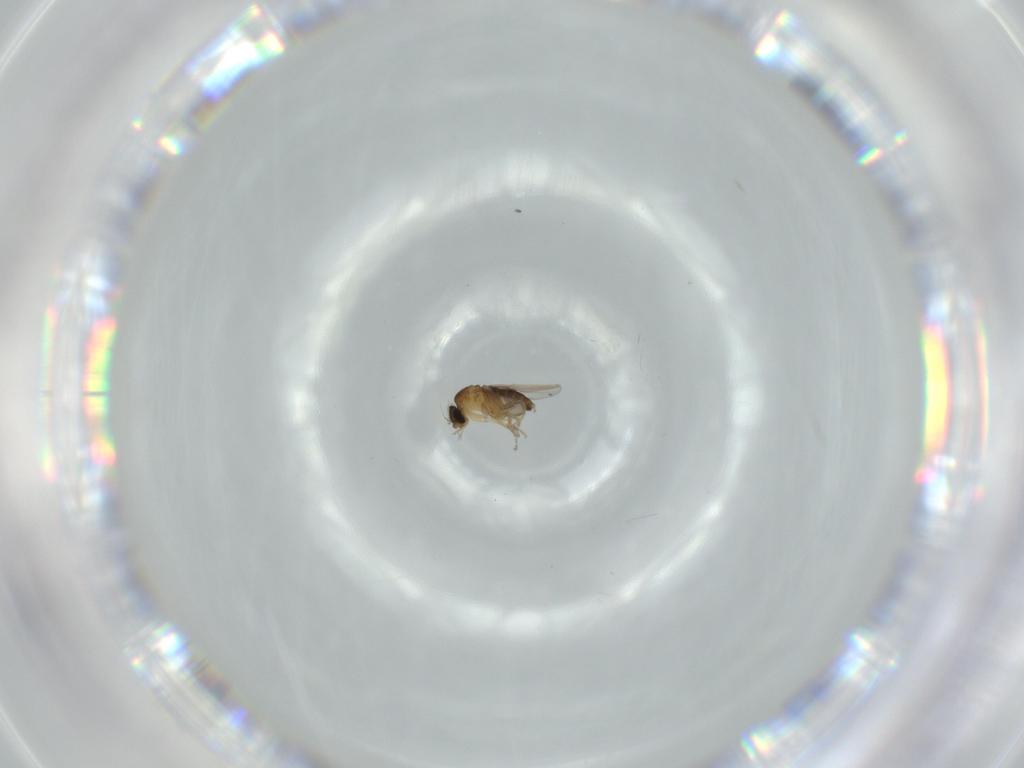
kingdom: Animalia
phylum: Arthropoda
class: Insecta
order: Diptera
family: Phoridae
